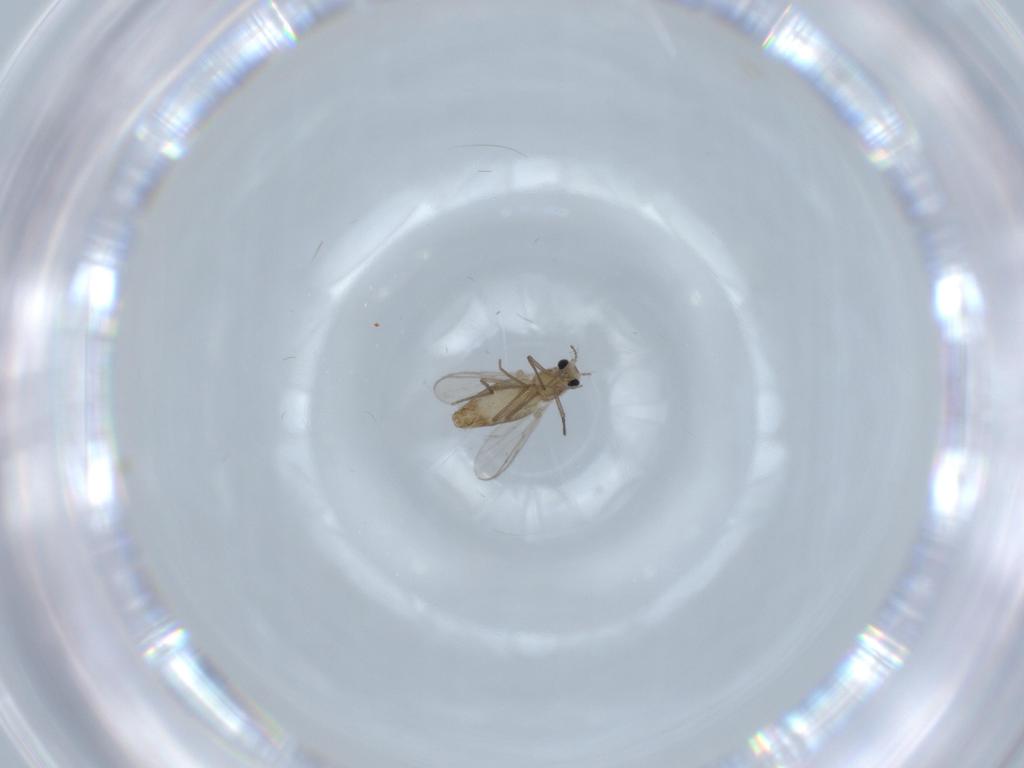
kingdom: Animalia
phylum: Arthropoda
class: Insecta
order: Diptera
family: Chironomidae
